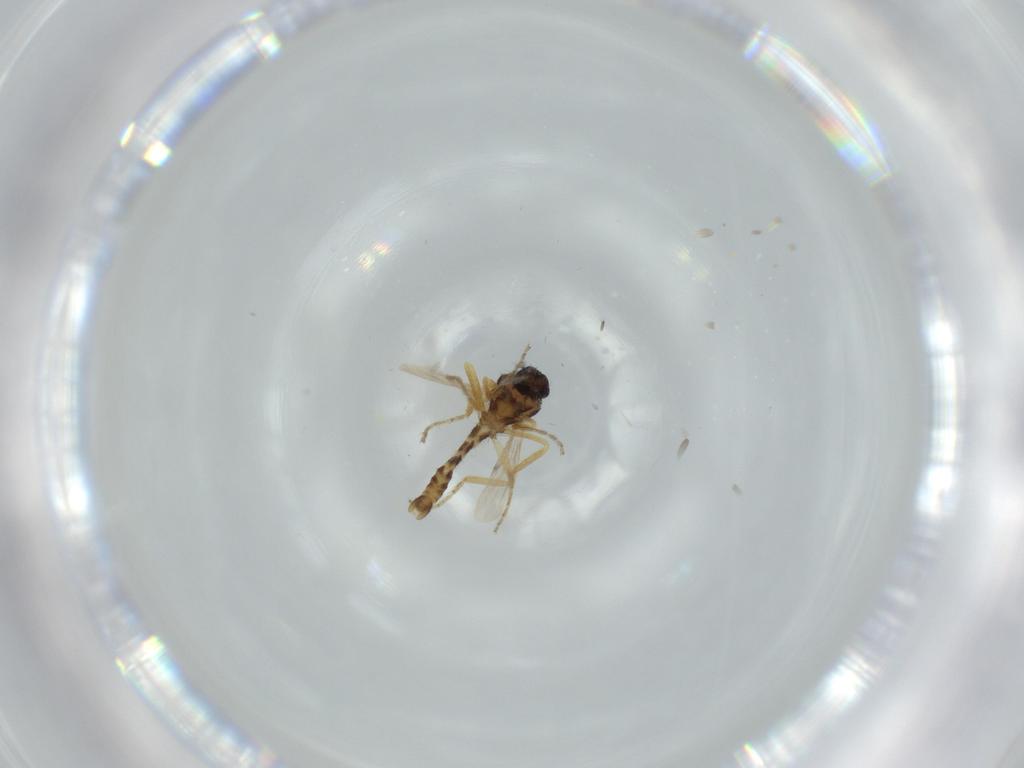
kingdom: Animalia
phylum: Arthropoda
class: Insecta
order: Diptera
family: Ceratopogonidae
